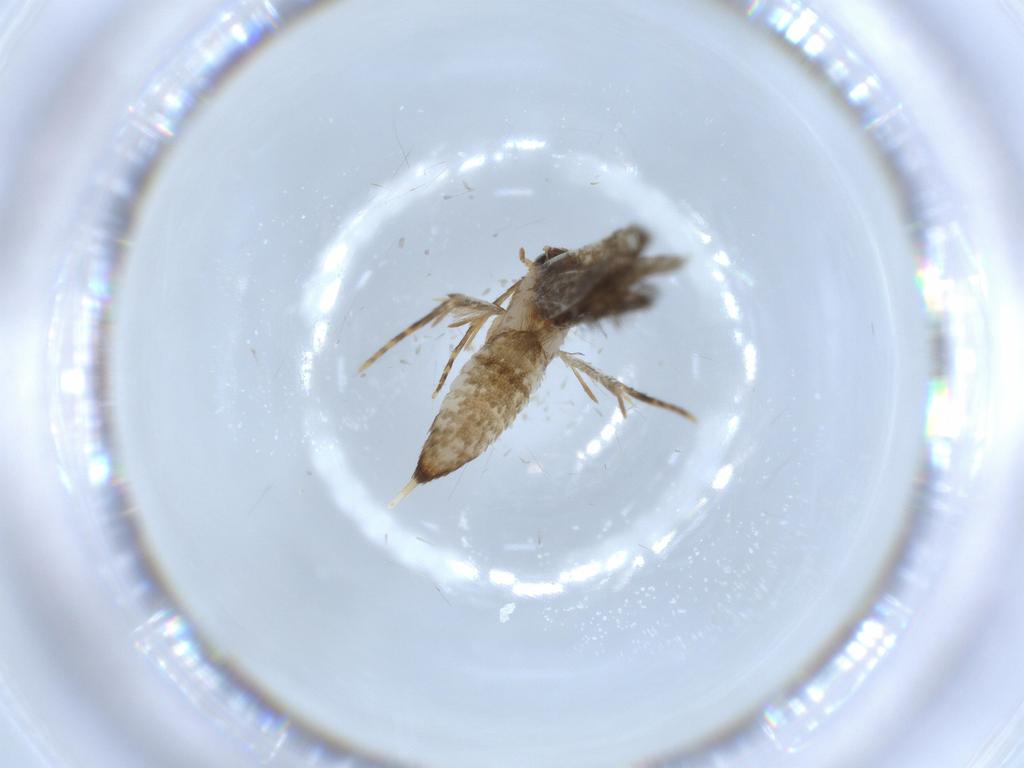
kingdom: Animalia
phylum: Arthropoda
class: Insecta
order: Lepidoptera
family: Tineidae
